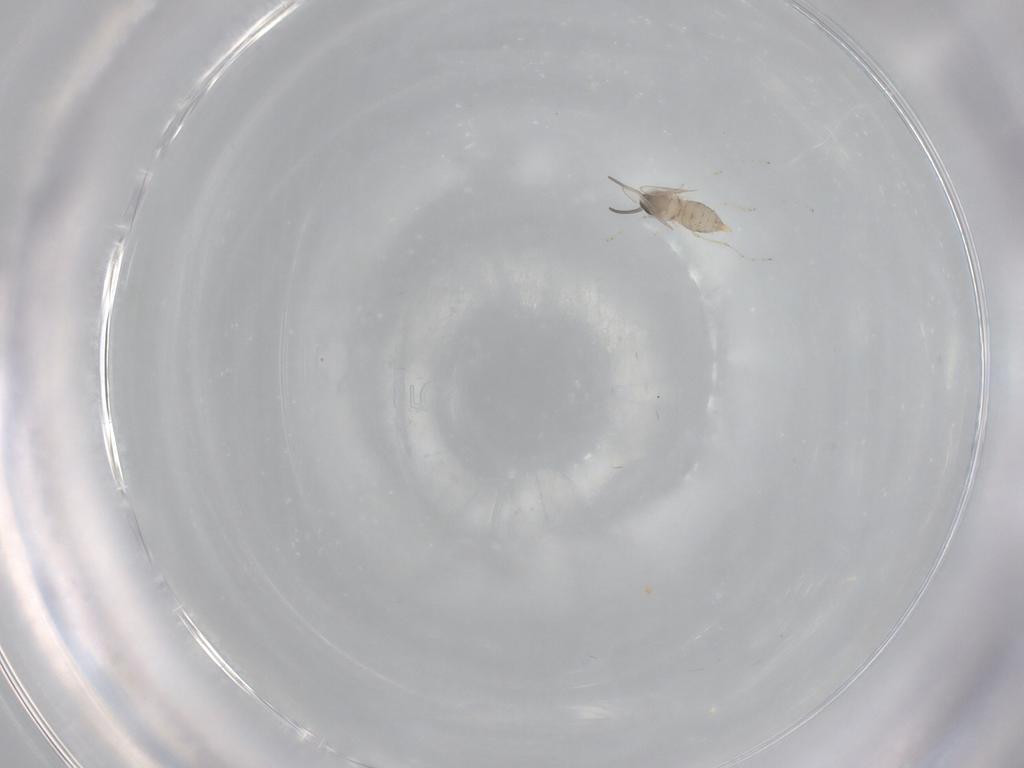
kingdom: Animalia
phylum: Arthropoda
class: Insecta
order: Diptera
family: Cecidomyiidae
